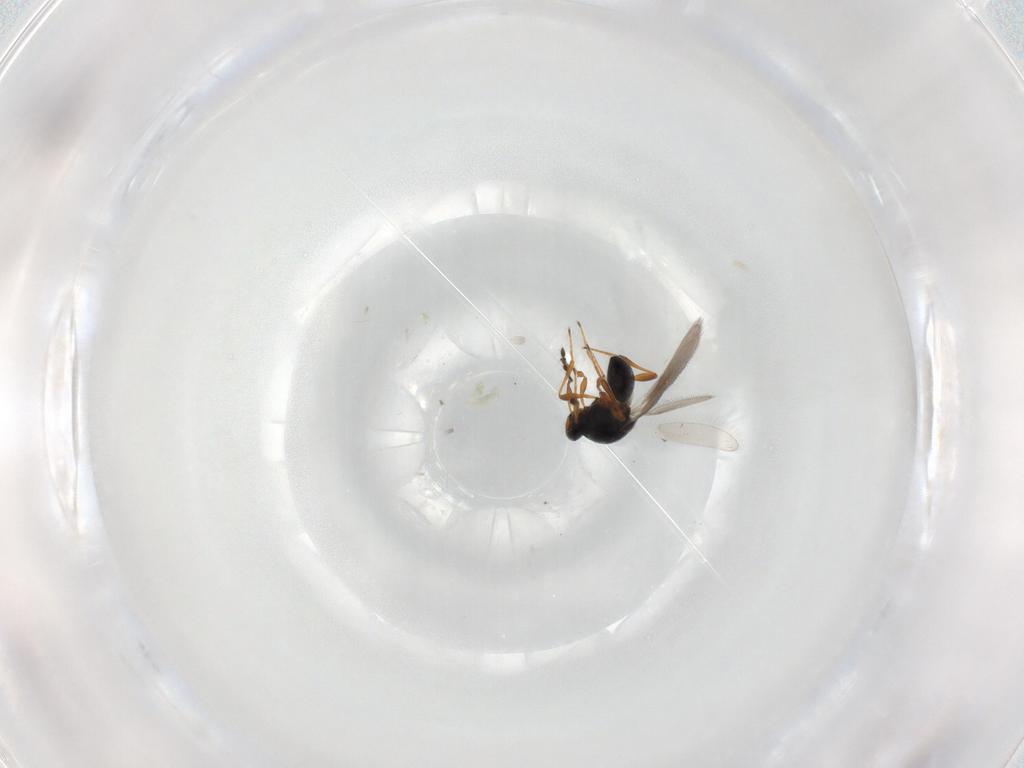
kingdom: Animalia
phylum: Arthropoda
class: Insecta
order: Hymenoptera
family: Platygastridae
